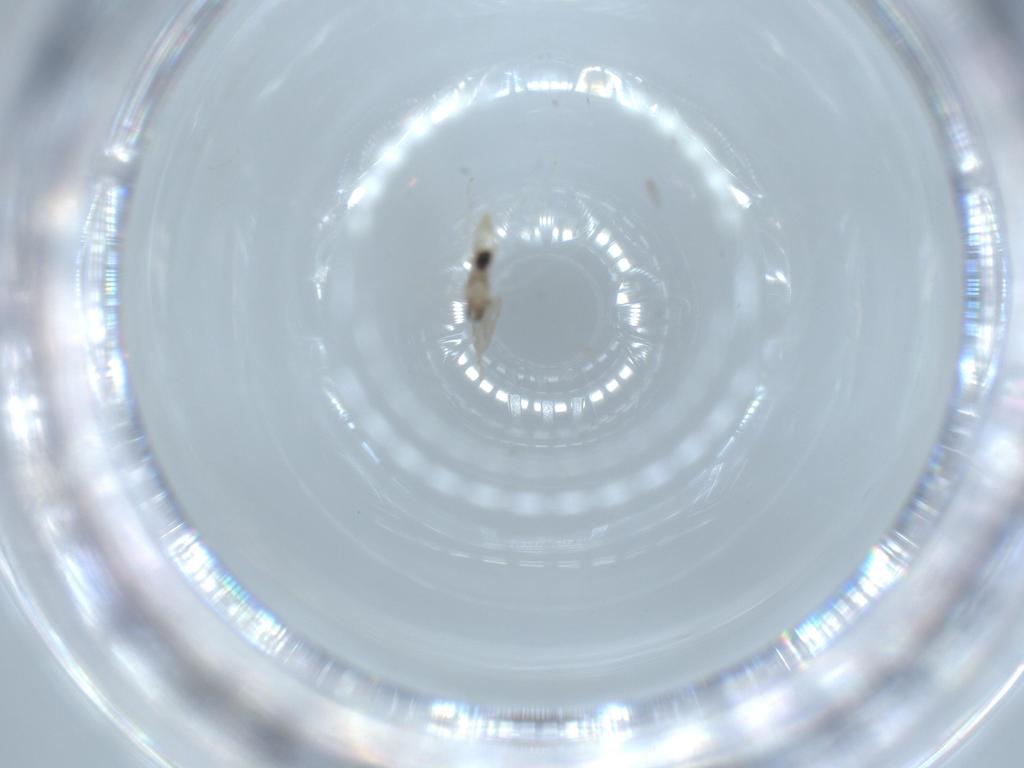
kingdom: Animalia
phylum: Arthropoda
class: Insecta
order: Diptera
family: Cecidomyiidae
